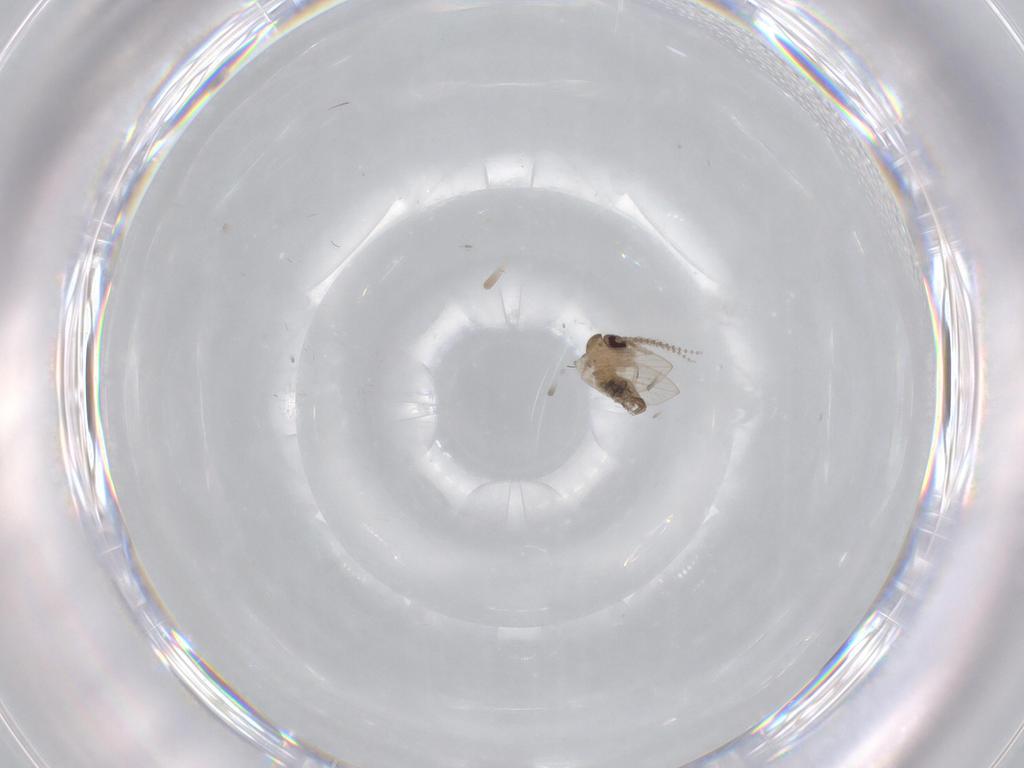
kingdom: Animalia
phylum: Arthropoda
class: Insecta
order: Diptera
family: Psychodidae
